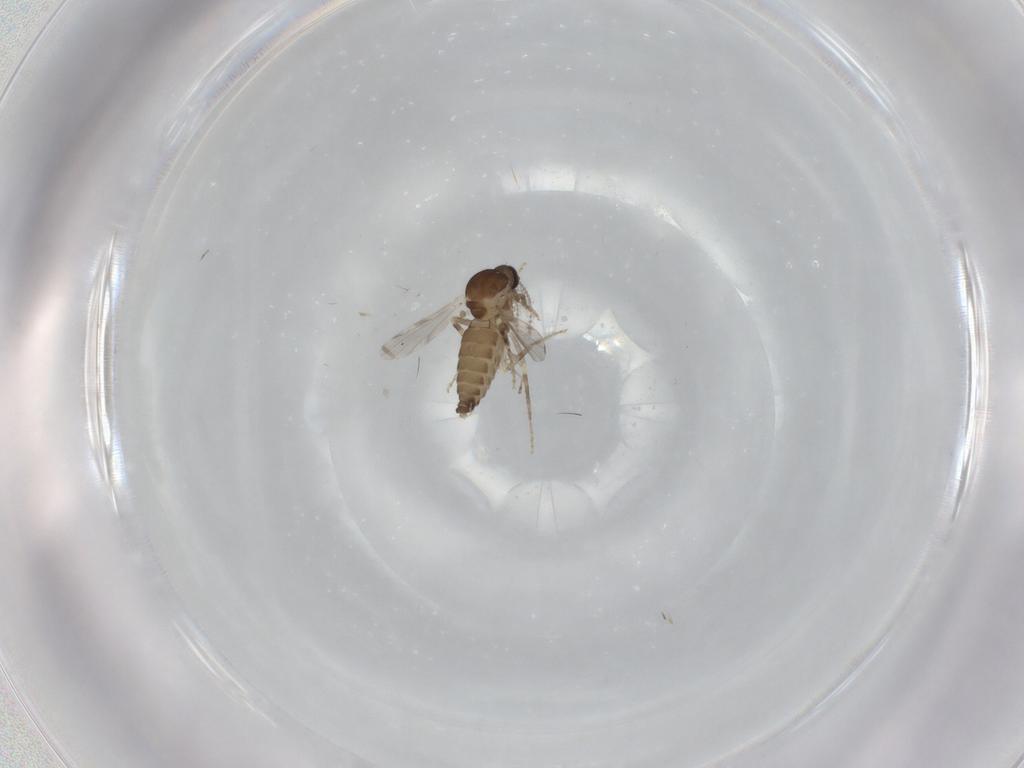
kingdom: Animalia
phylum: Arthropoda
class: Insecta
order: Diptera
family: Ceratopogonidae
